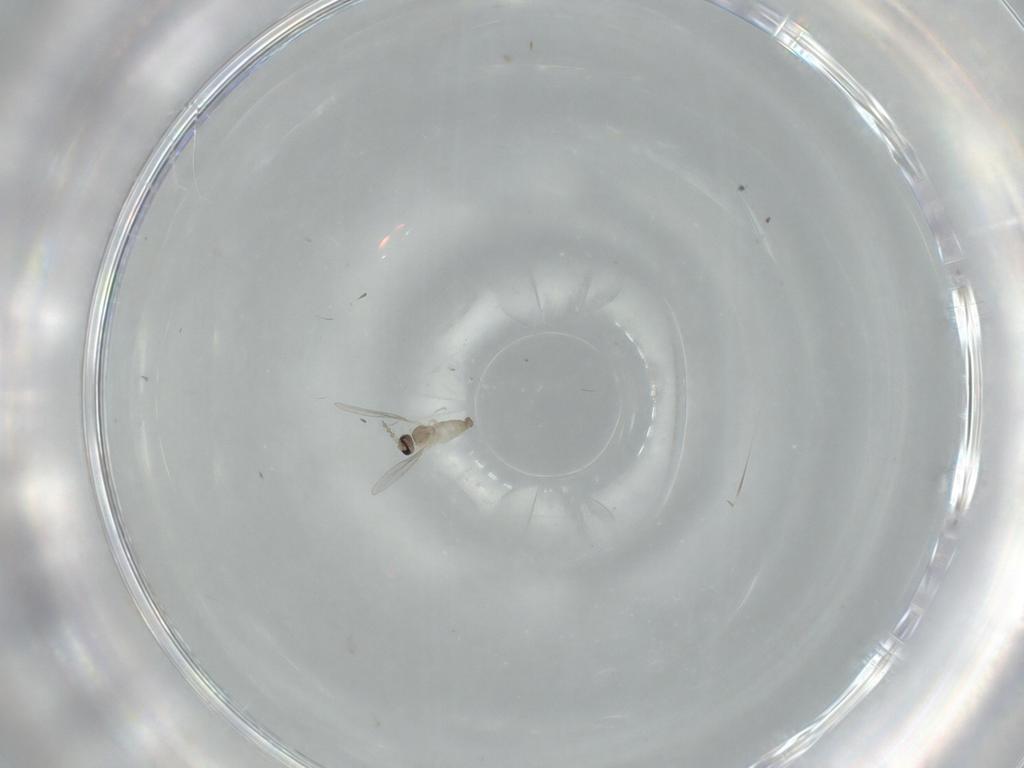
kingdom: Animalia
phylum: Arthropoda
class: Insecta
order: Diptera
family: Cecidomyiidae
